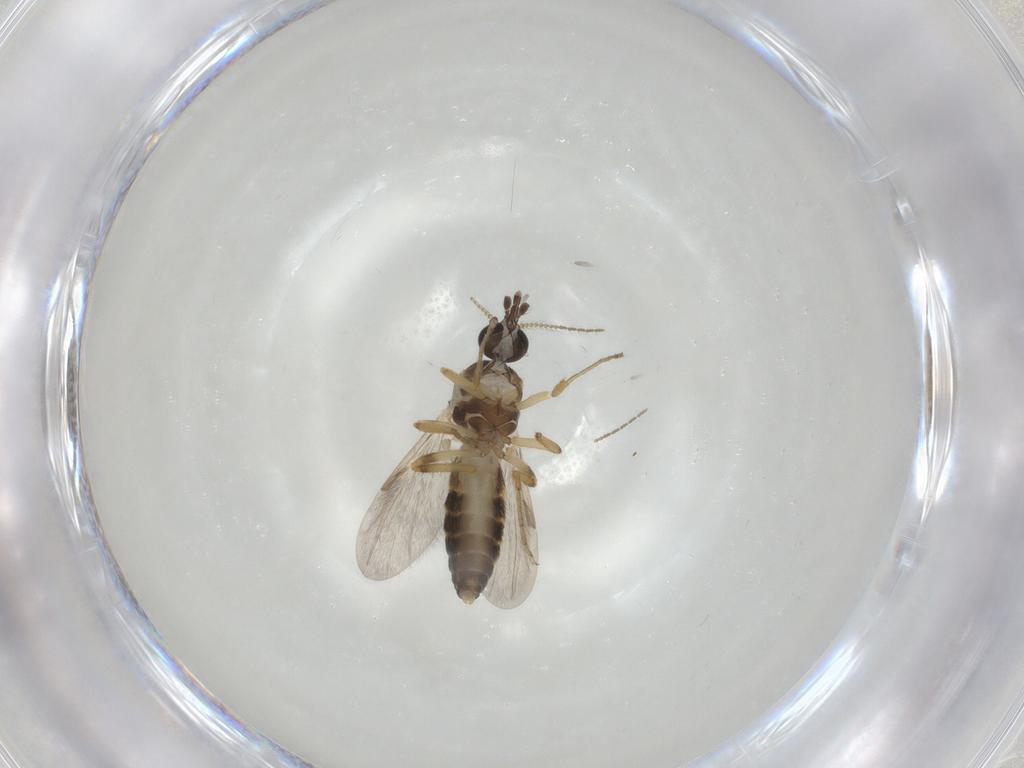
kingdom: Animalia
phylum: Arthropoda
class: Insecta
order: Diptera
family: Ceratopogonidae
